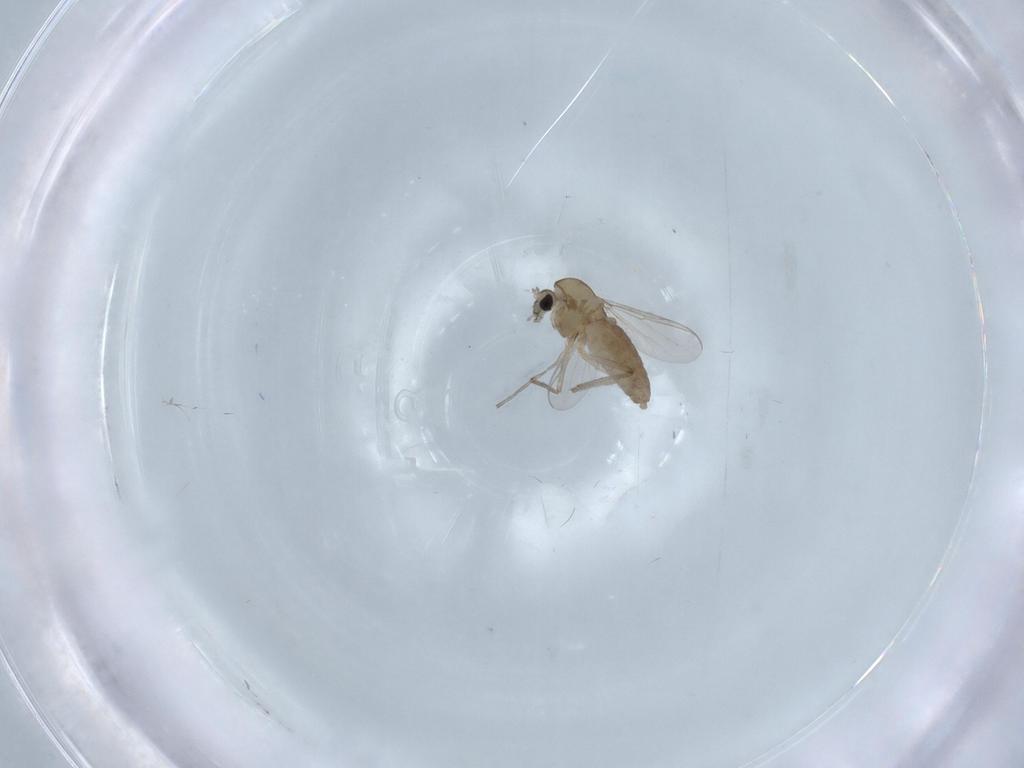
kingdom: Animalia
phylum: Arthropoda
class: Insecta
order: Diptera
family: Chironomidae
